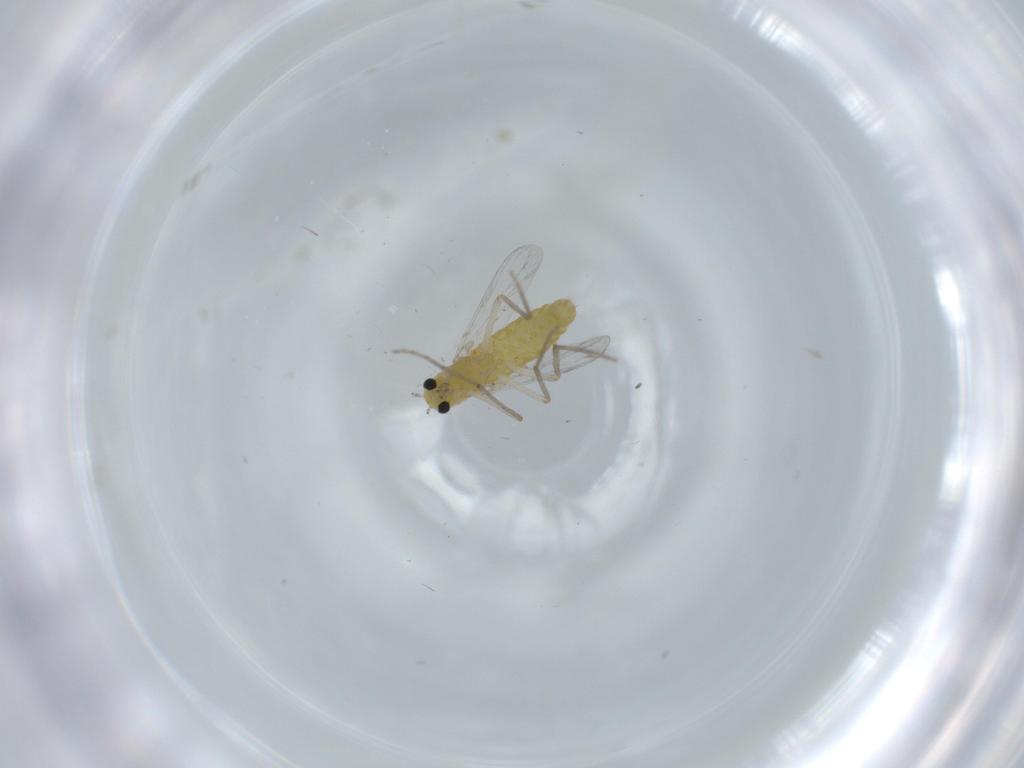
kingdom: Animalia
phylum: Arthropoda
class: Insecta
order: Diptera
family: Chironomidae
